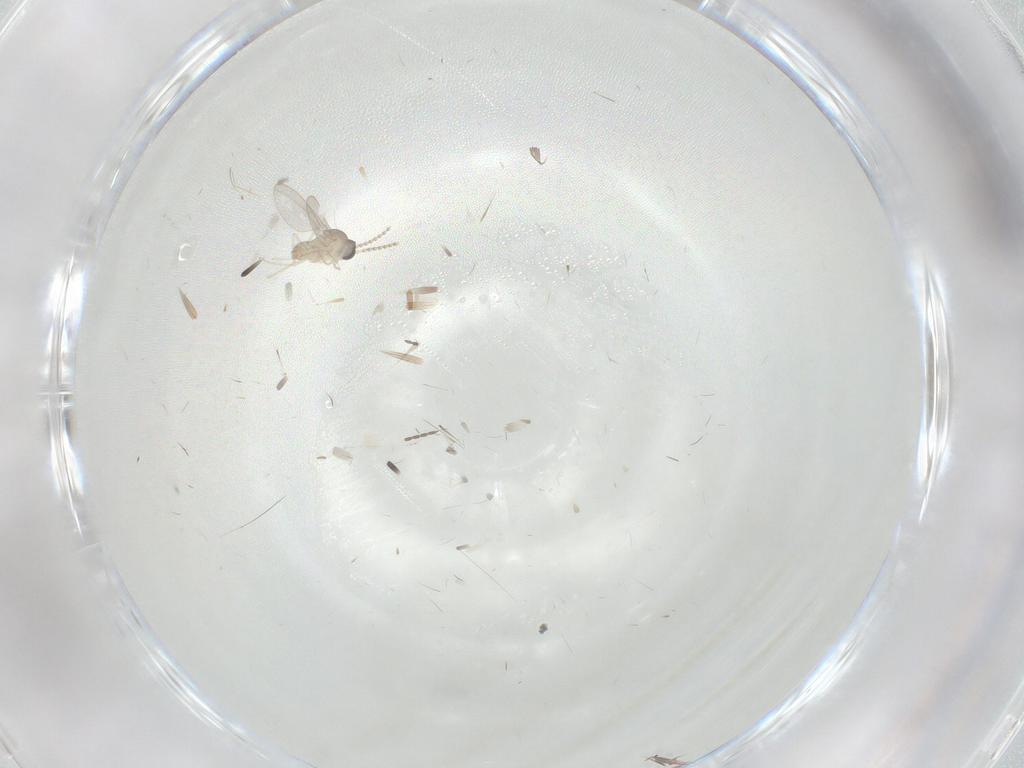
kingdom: Animalia
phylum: Arthropoda
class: Insecta
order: Diptera
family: Cecidomyiidae
